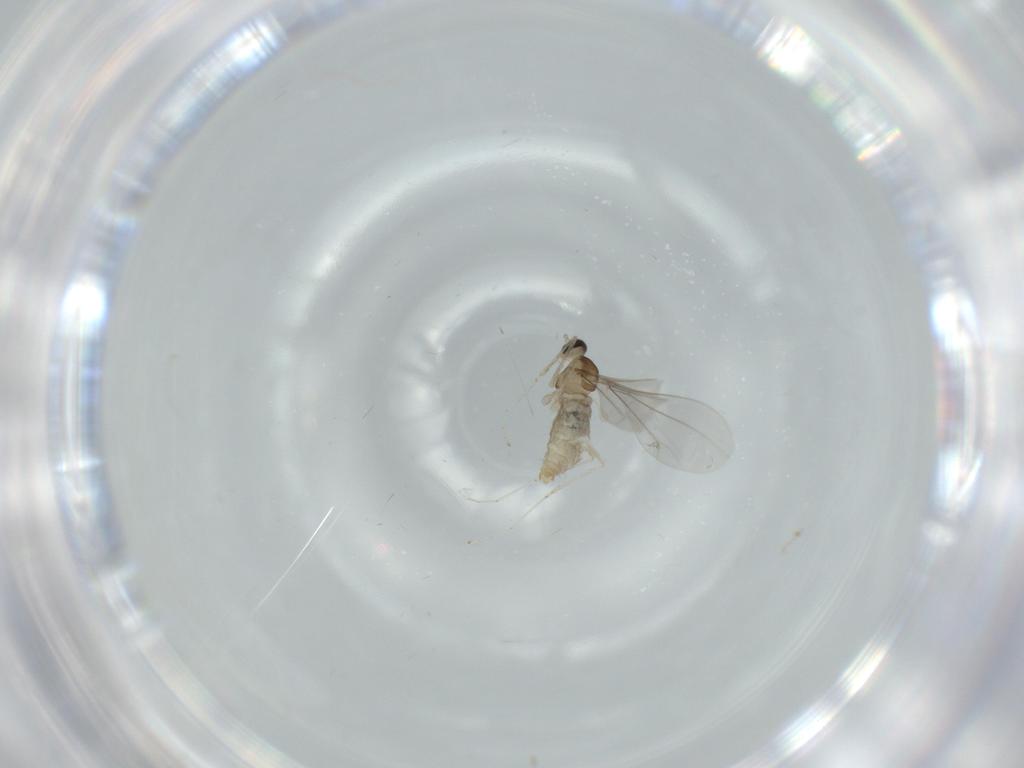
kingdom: Animalia
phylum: Arthropoda
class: Insecta
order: Diptera
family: Cecidomyiidae
